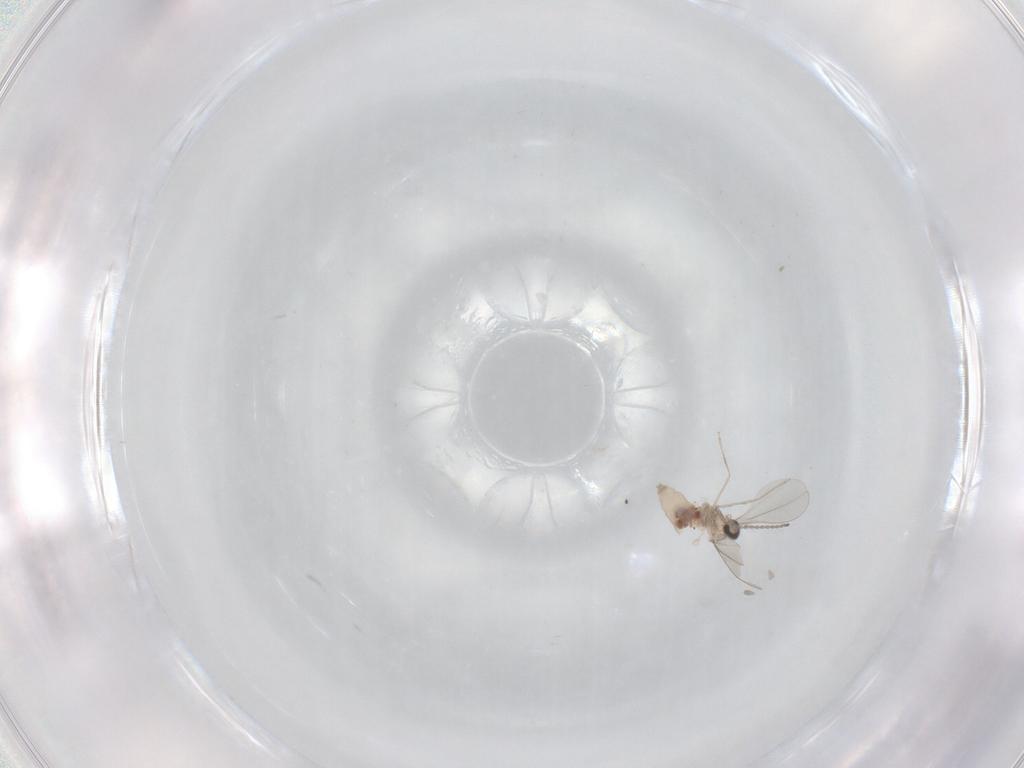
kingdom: Animalia
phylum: Arthropoda
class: Insecta
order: Diptera
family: Cecidomyiidae
